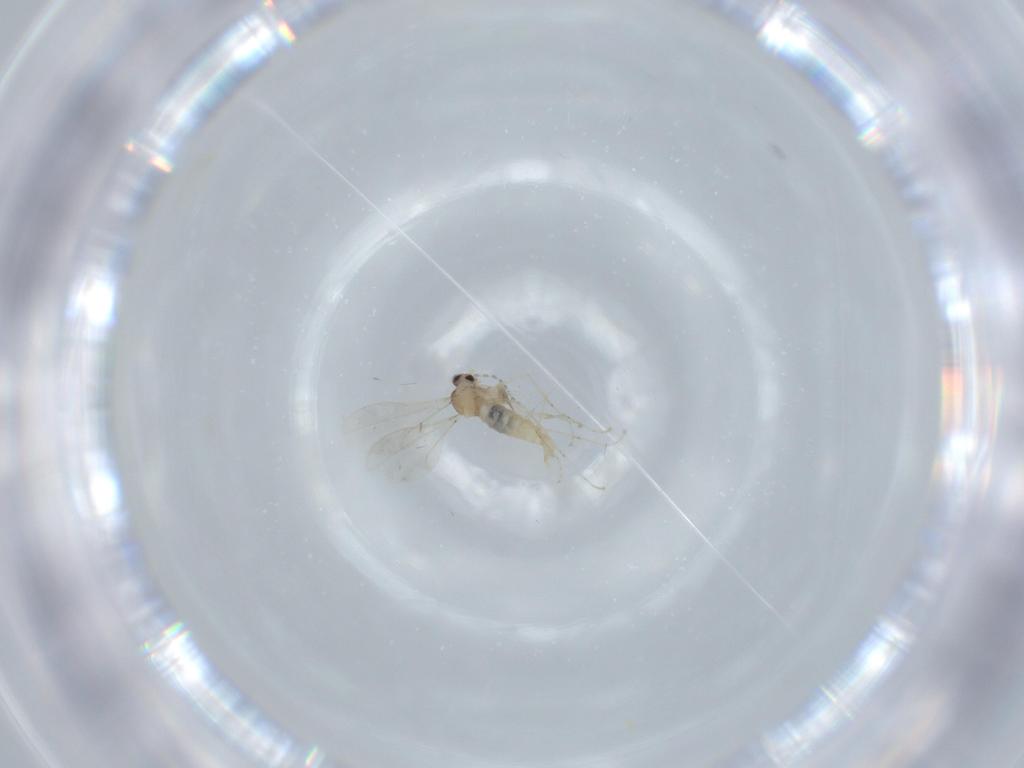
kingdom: Animalia
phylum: Arthropoda
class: Insecta
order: Diptera
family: Cecidomyiidae
